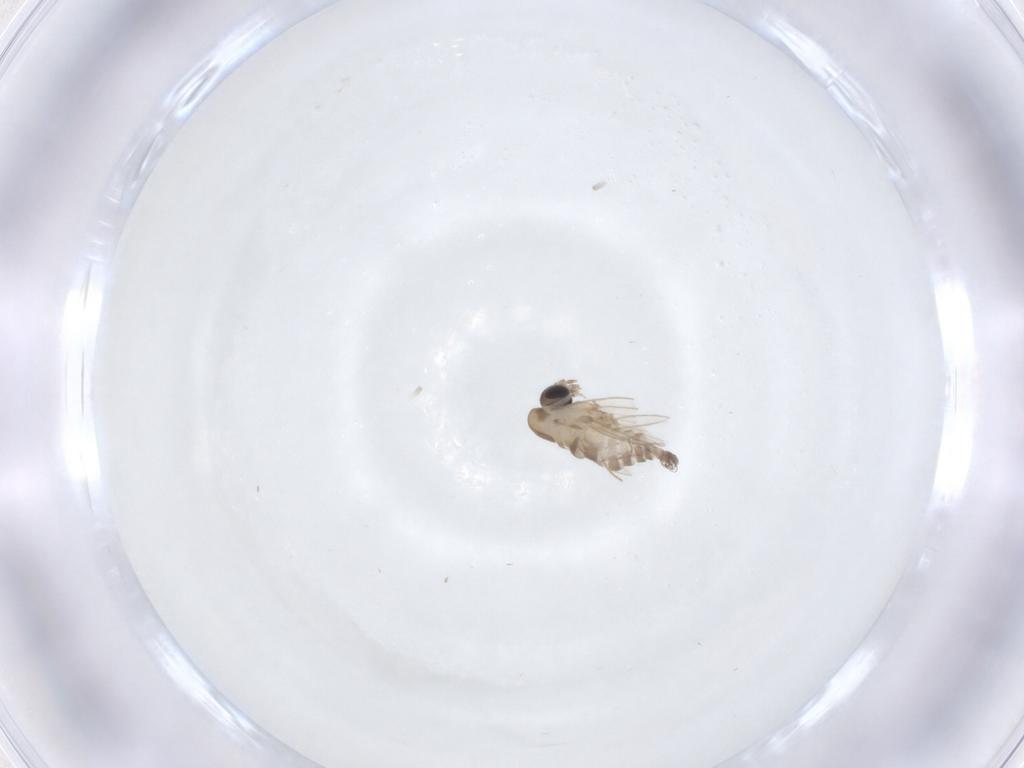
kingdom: Animalia
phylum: Arthropoda
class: Insecta
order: Diptera
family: Psychodidae
